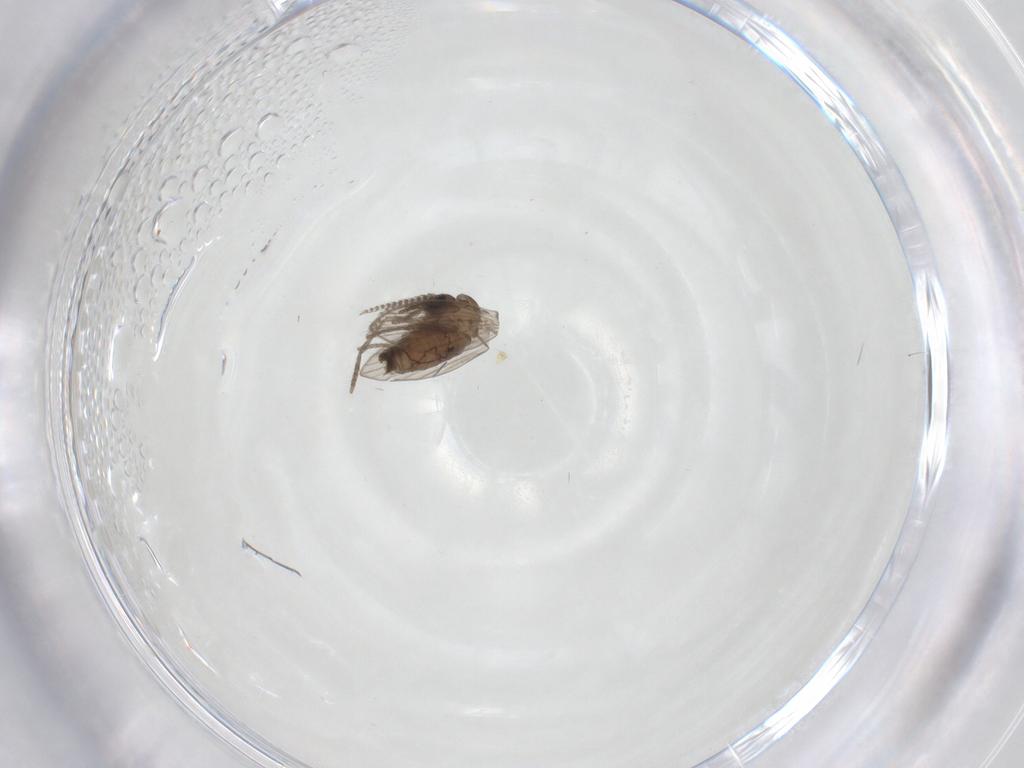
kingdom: Animalia
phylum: Arthropoda
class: Insecta
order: Diptera
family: Psychodidae
